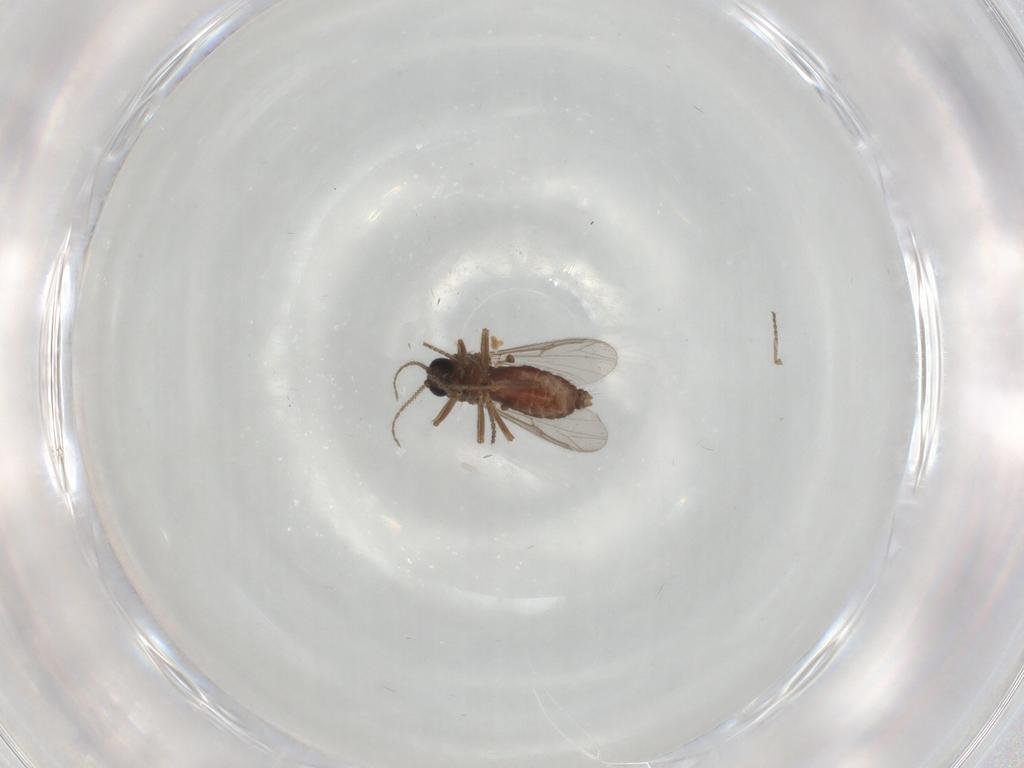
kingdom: Animalia
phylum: Arthropoda
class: Insecta
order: Diptera
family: Ceratopogonidae
